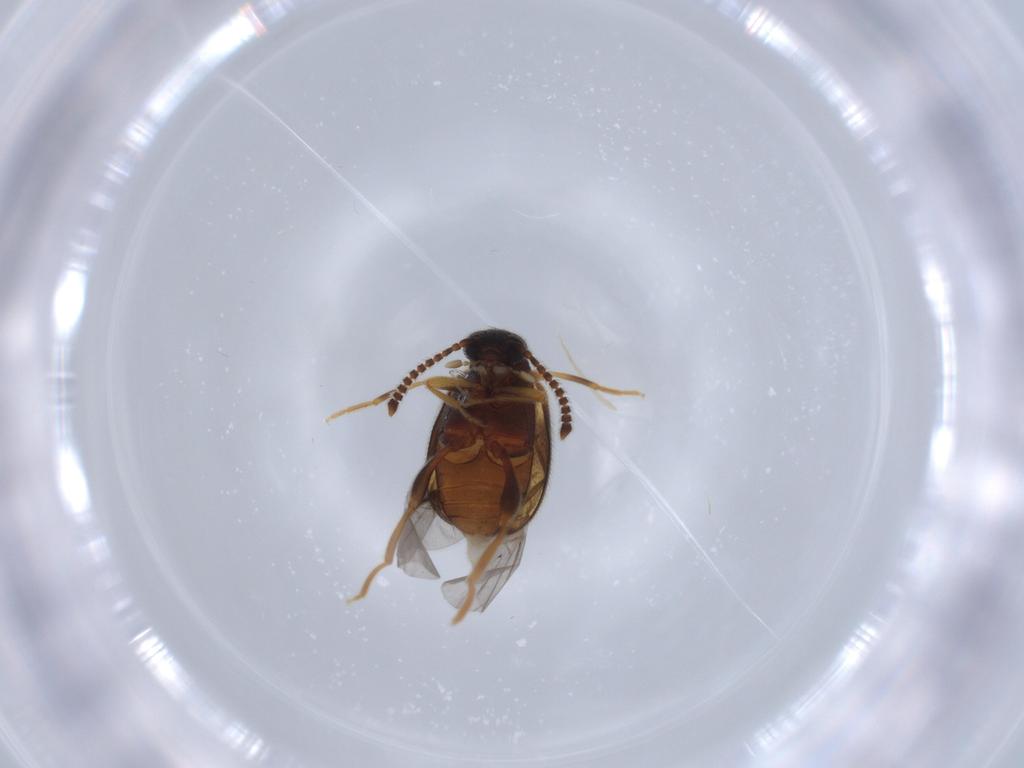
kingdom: Animalia
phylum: Arthropoda
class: Insecta
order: Coleoptera
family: Aderidae
